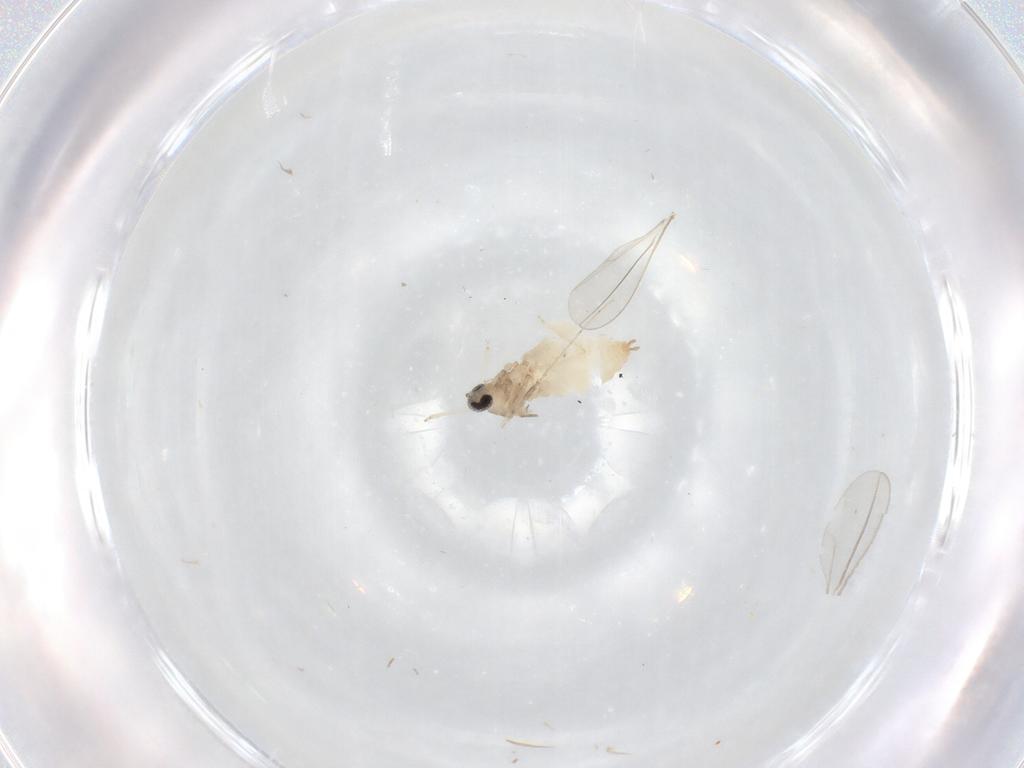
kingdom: Animalia
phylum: Arthropoda
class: Insecta
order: Diptera
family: Cecidomyiidae
